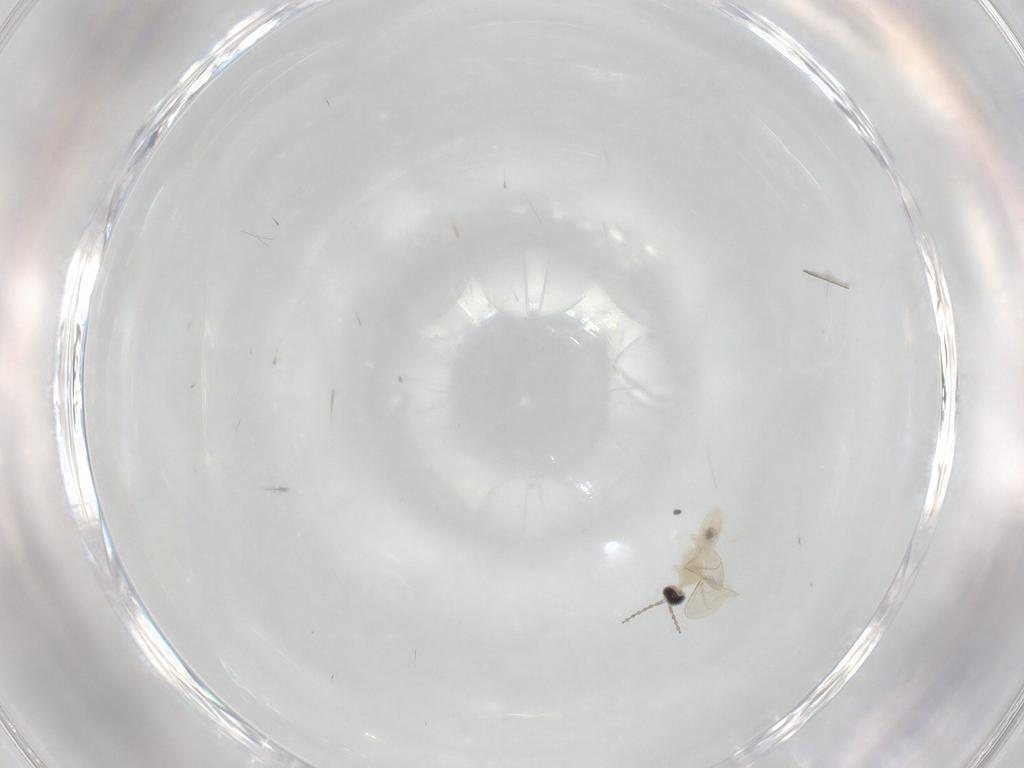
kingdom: Animalia
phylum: Arthropoda
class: Insecta
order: Diptera
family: Sciaridae
